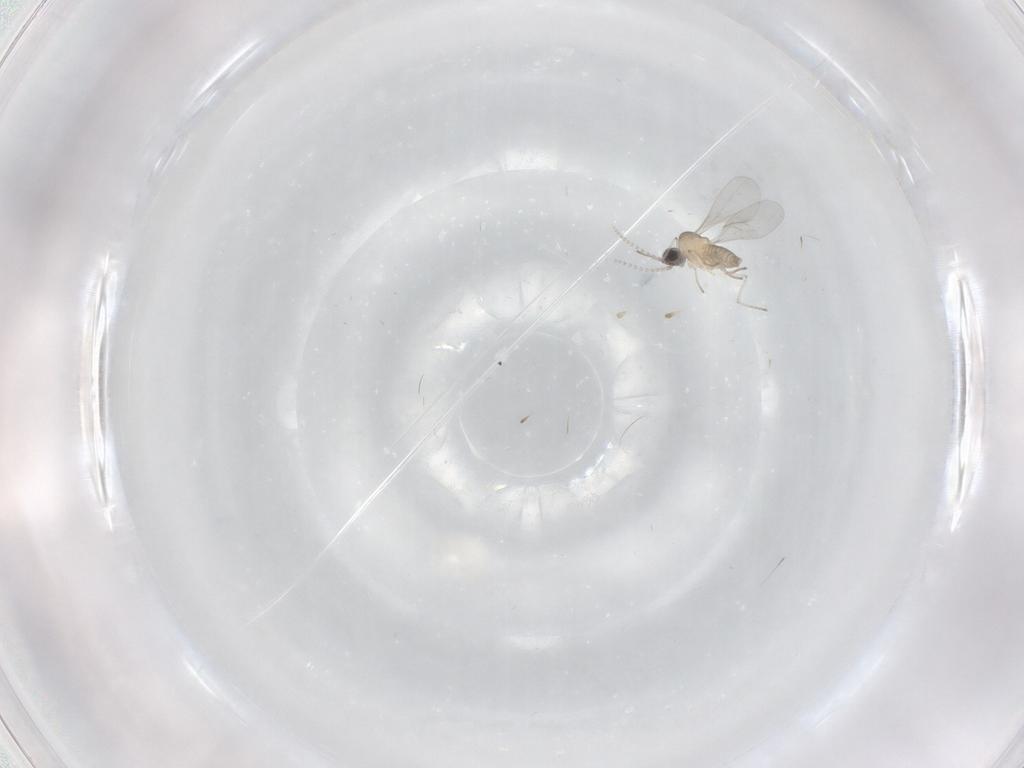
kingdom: Animalia
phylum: Arthropoda
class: Insecta
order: Diptera
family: Cecidomyiidae
